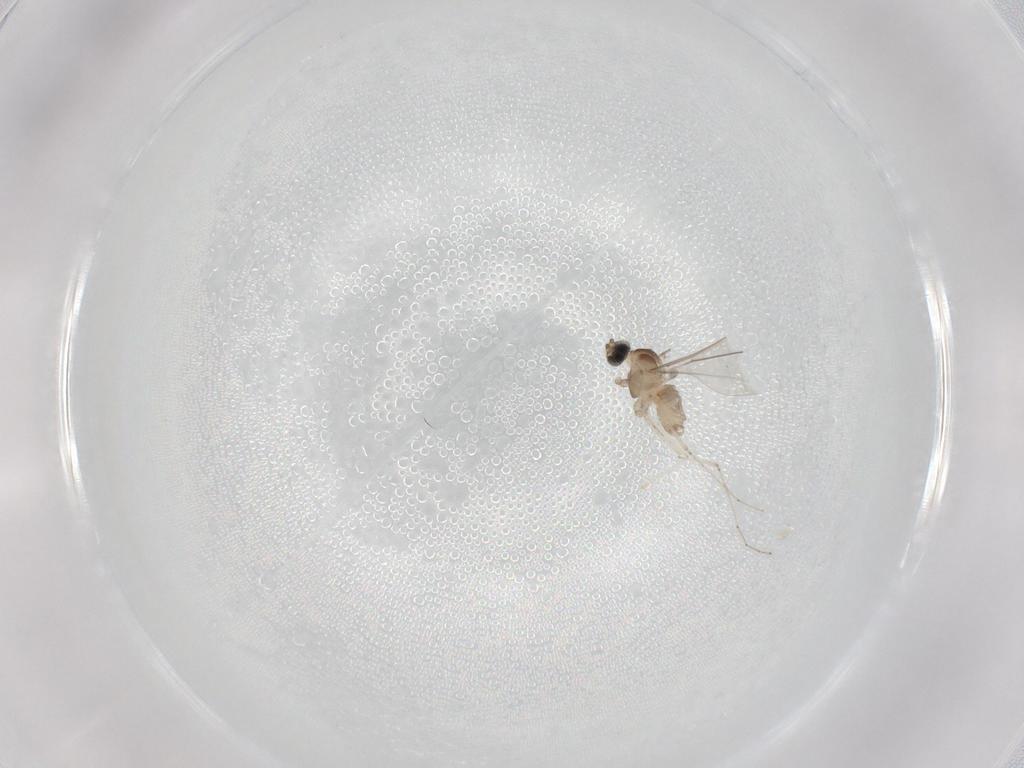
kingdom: Animalia
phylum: Arthropoda
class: Insecta
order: Diptera
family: Cecidomyiidae
